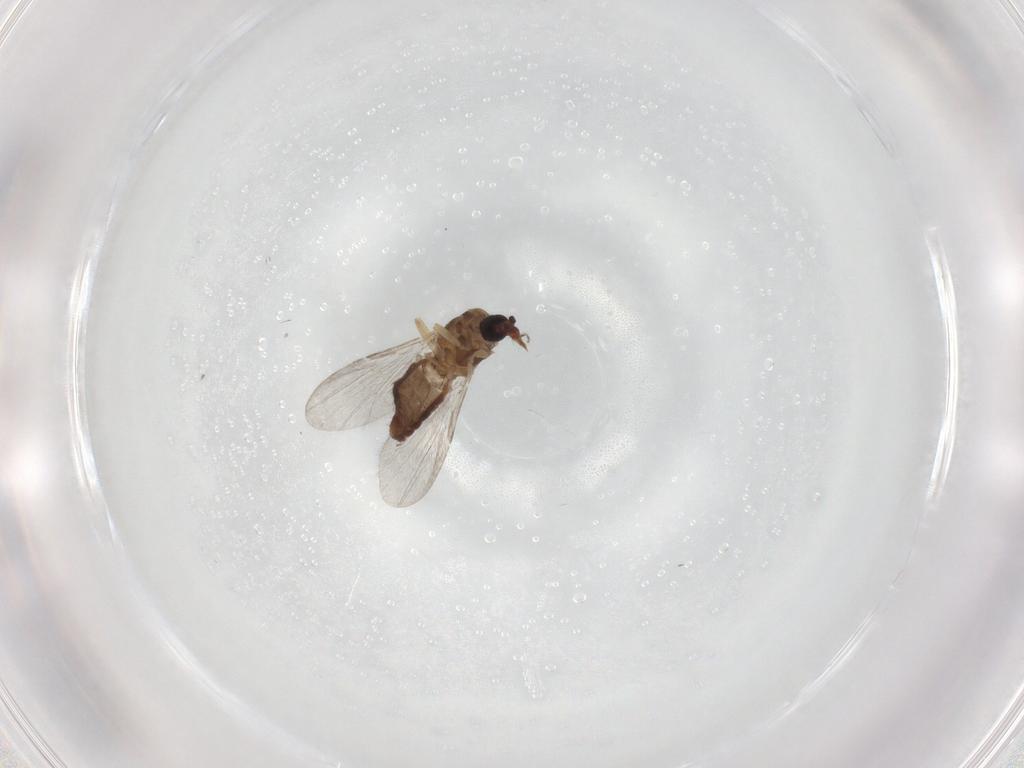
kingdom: Animalia
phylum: Arthropoda
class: Insecta
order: Diptera
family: Ceratopogonidae
